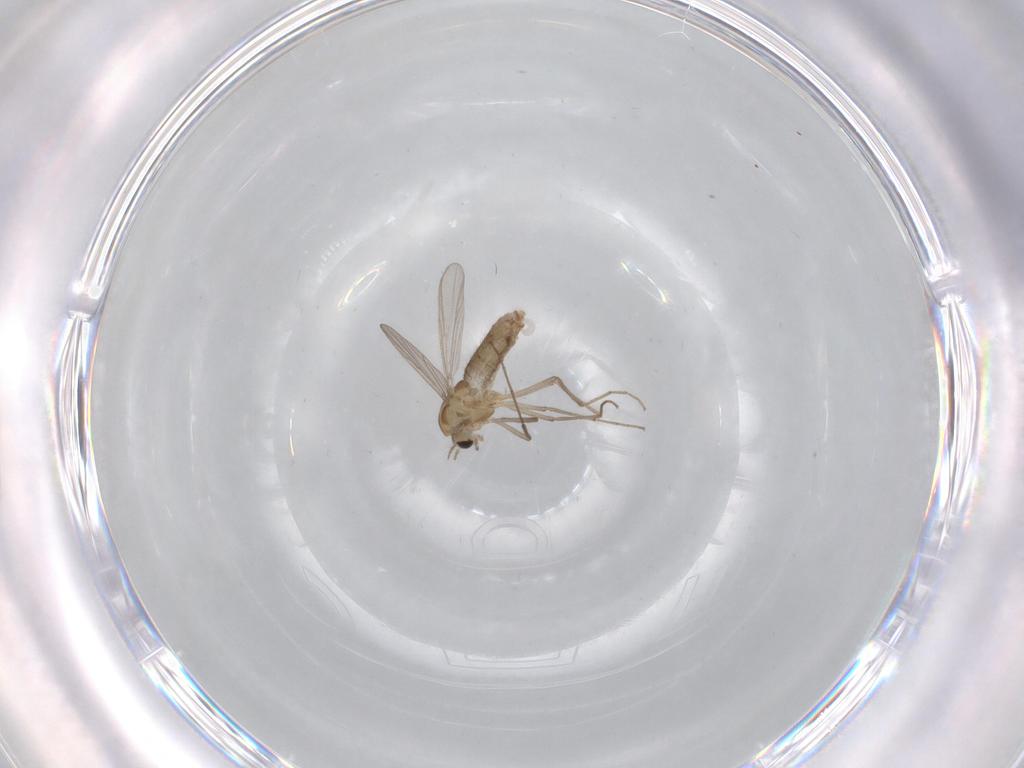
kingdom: Animalia
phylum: Arthropoda
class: Insecta
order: Diptera
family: Chironomidae
